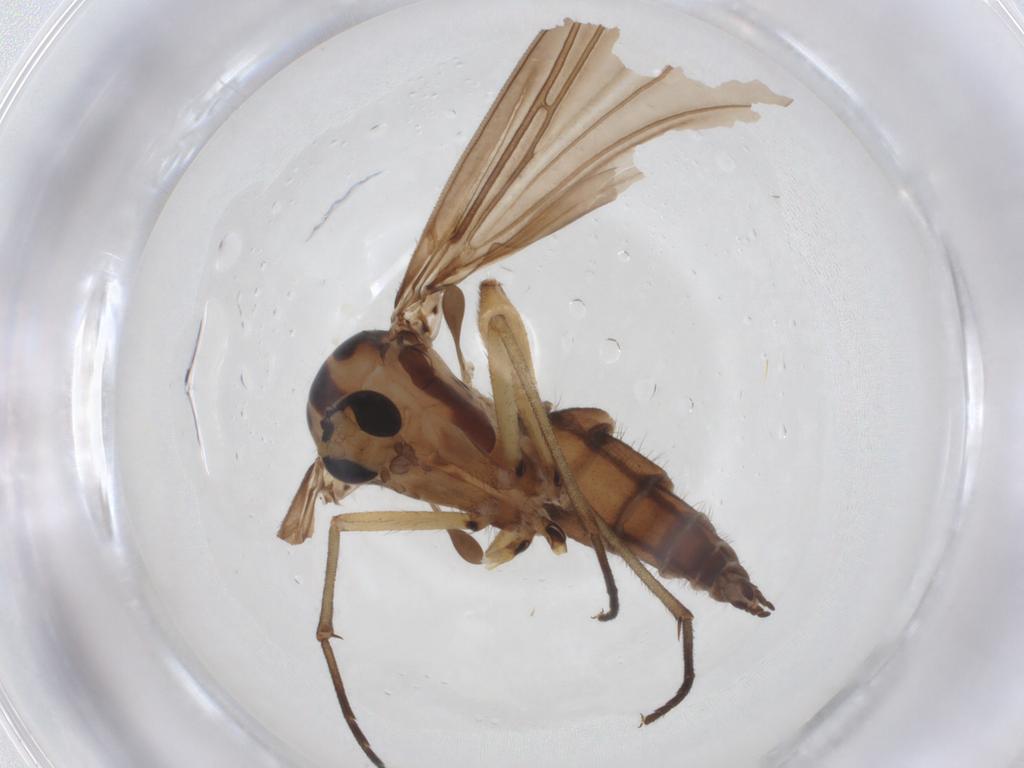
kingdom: Animalia
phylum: Arthropoda
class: Insecta
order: Diptera
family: Sciaridae
